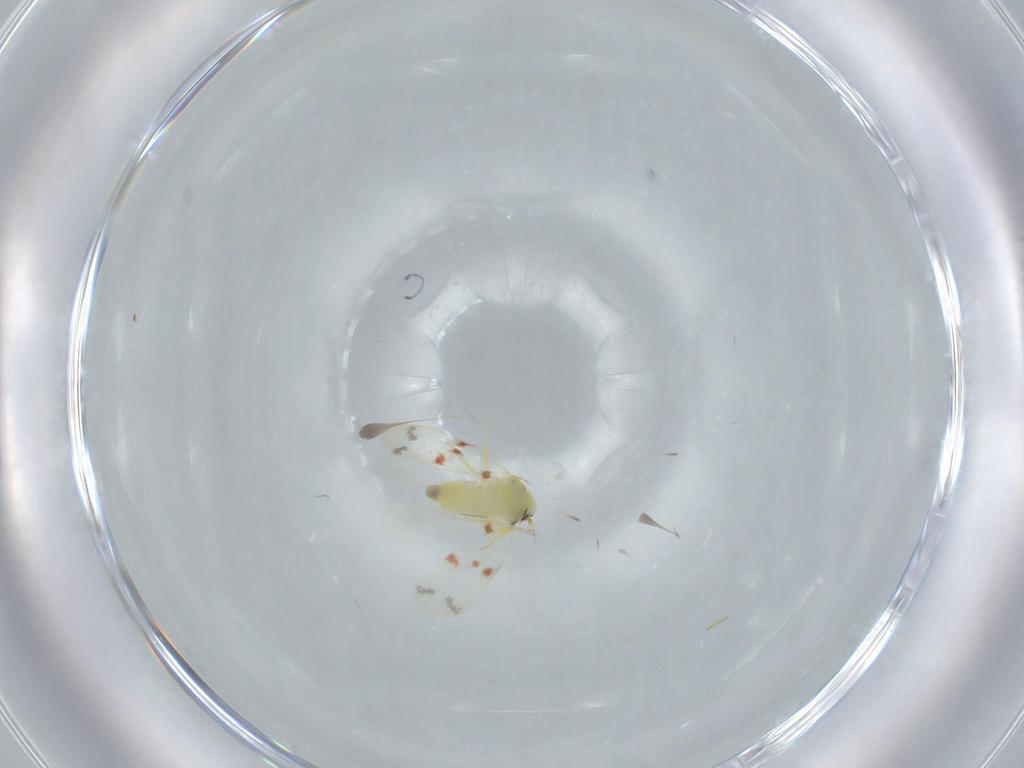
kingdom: Animalia
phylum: Arthropoda
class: Insecta
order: Hemiptera
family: Aleyrodidae
